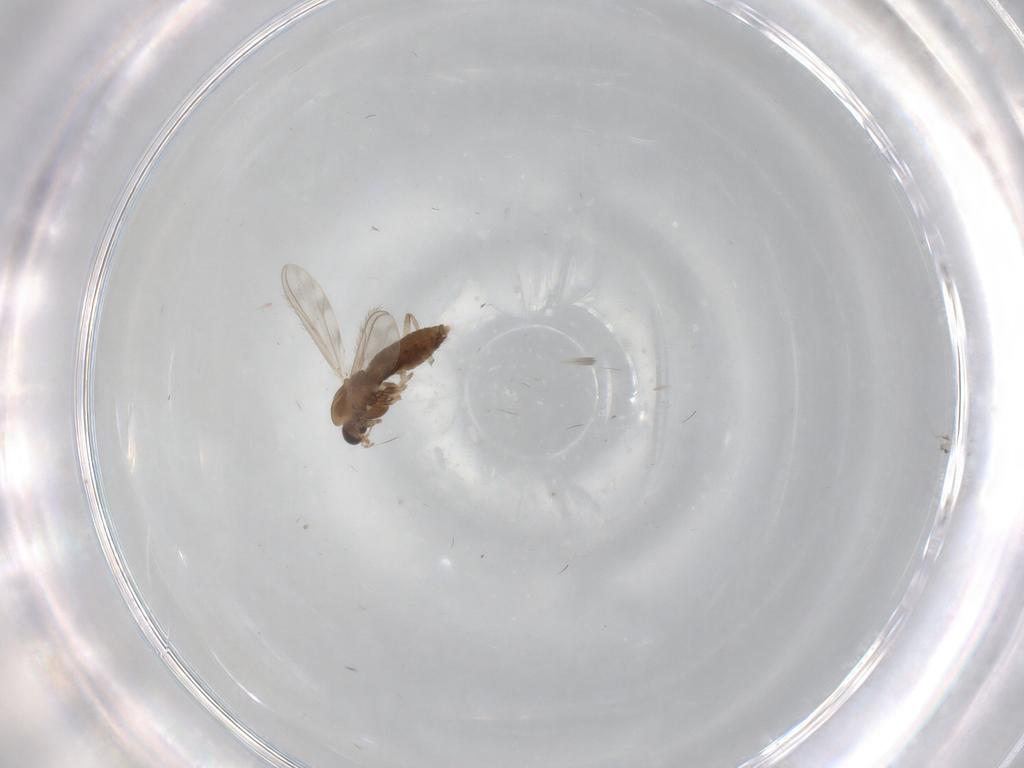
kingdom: Animalia
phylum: Arthropoda
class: Insecta
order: Diptera
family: Chironomidae
